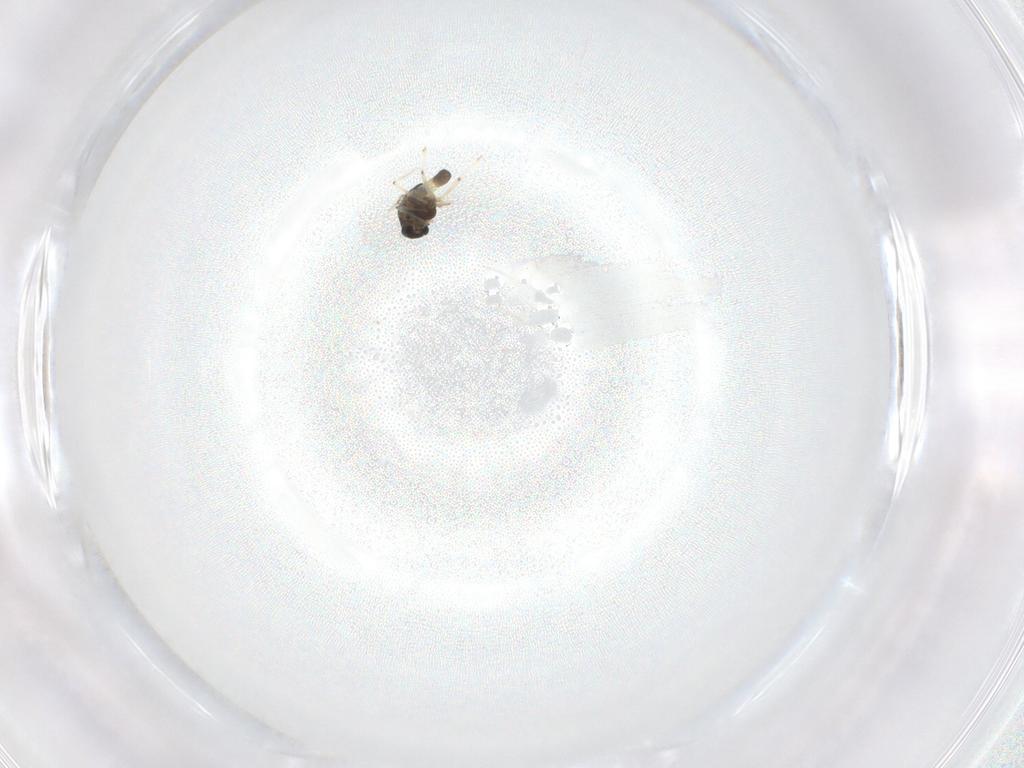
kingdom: Animalia
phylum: Arthropoda
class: Insecta
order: Diptera
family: Chironomidae
